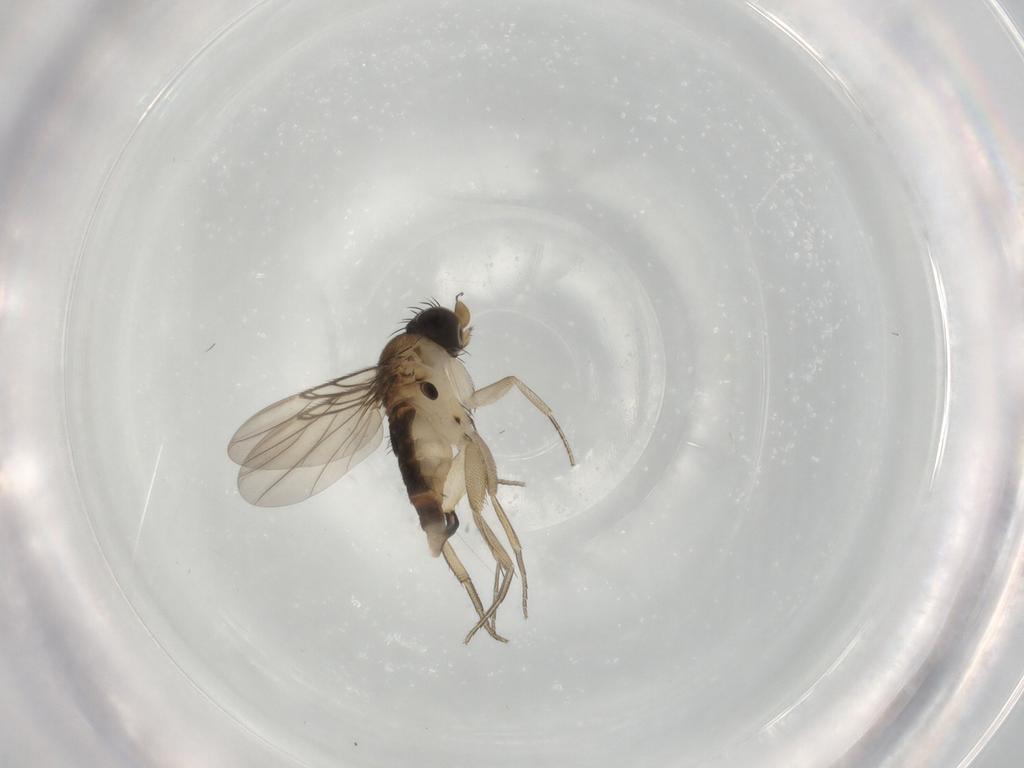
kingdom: Animalia
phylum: Arthropoda
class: Insecta
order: Diptera
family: Phoridae
